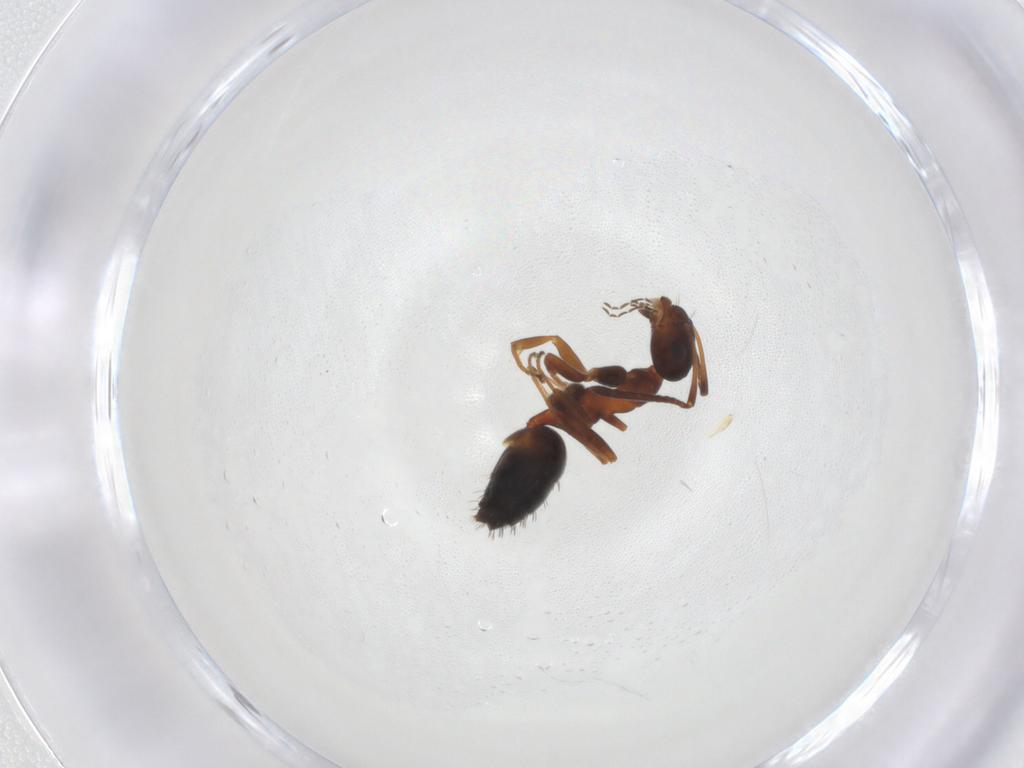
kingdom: Animalia
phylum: Arthropoda
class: Insecta
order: Hymenoptera
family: Formicidae
